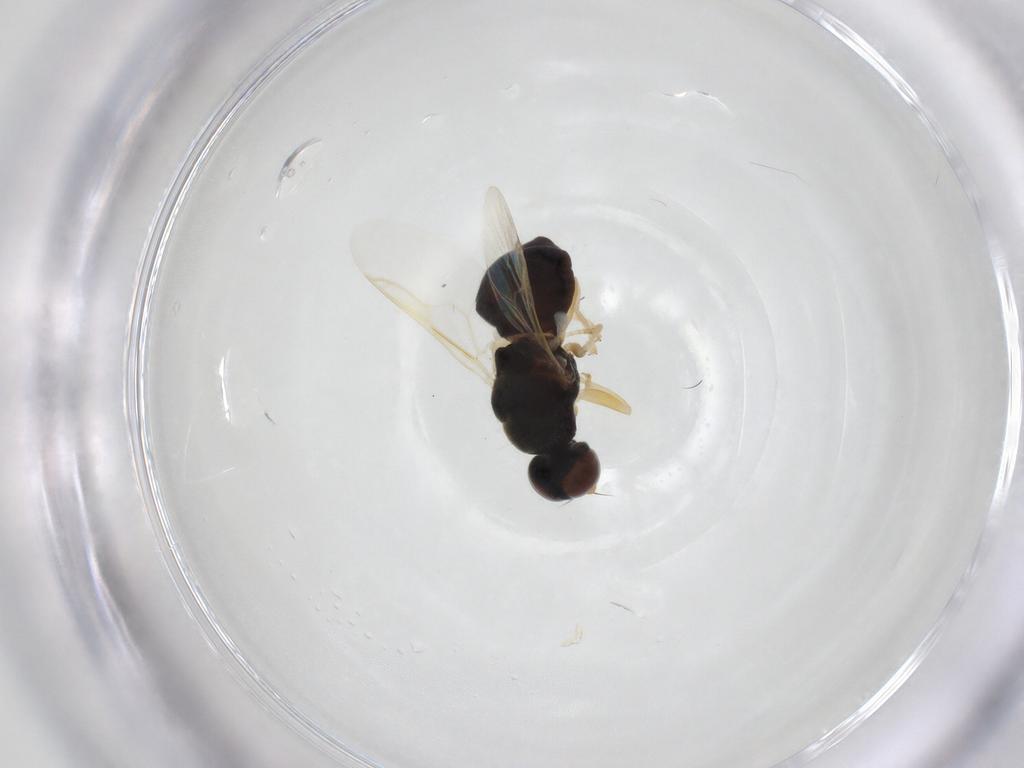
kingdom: Animalia
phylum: Arthropoda
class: Insecta
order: Diptera
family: Stratiomyidae
